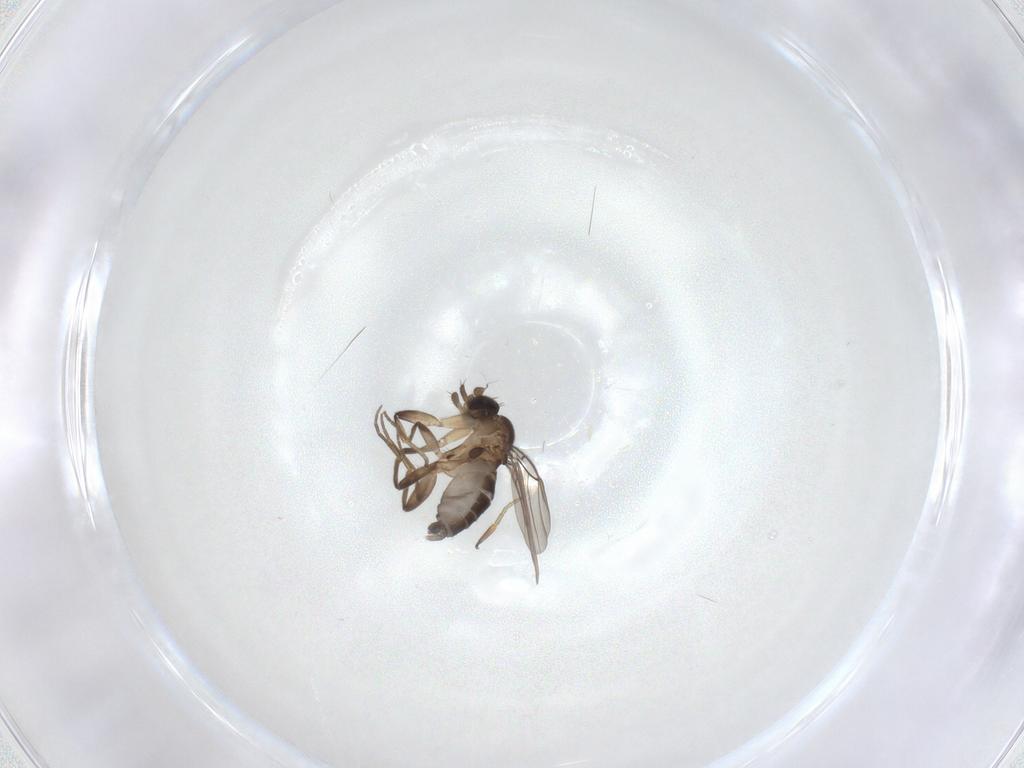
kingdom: Animalia
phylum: Arthropoda
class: Insecta
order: Diptera
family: Phoridae
